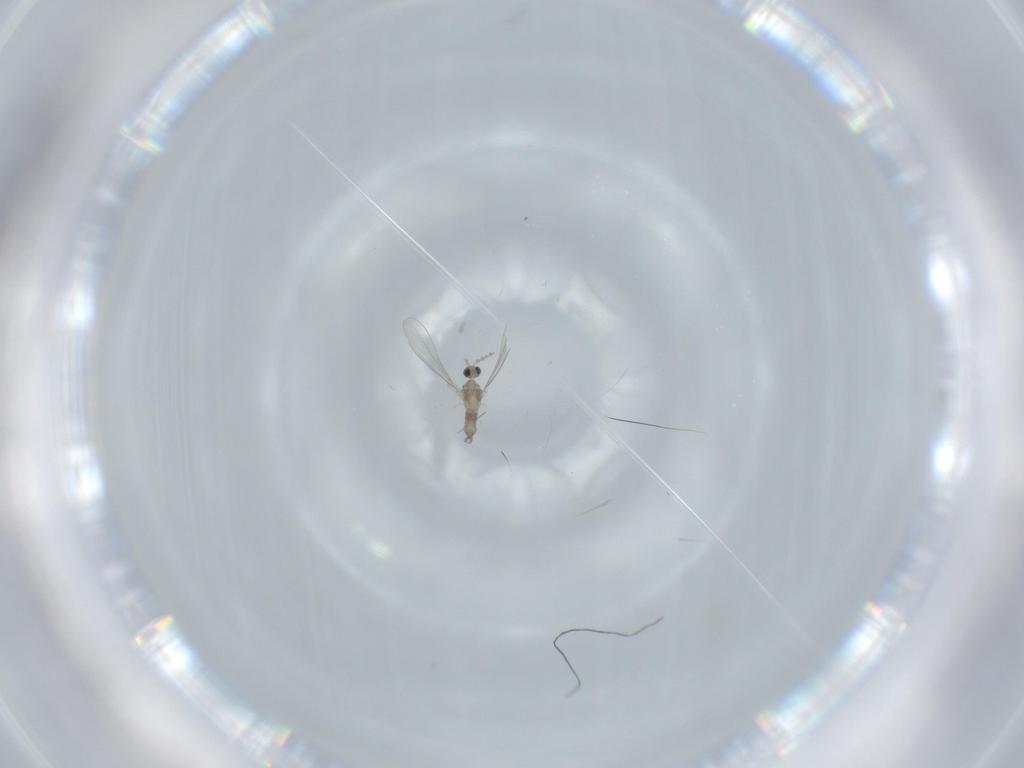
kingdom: Animalia
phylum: Arthropoda
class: Insecta
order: Diptera
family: Cecidomyiidae
